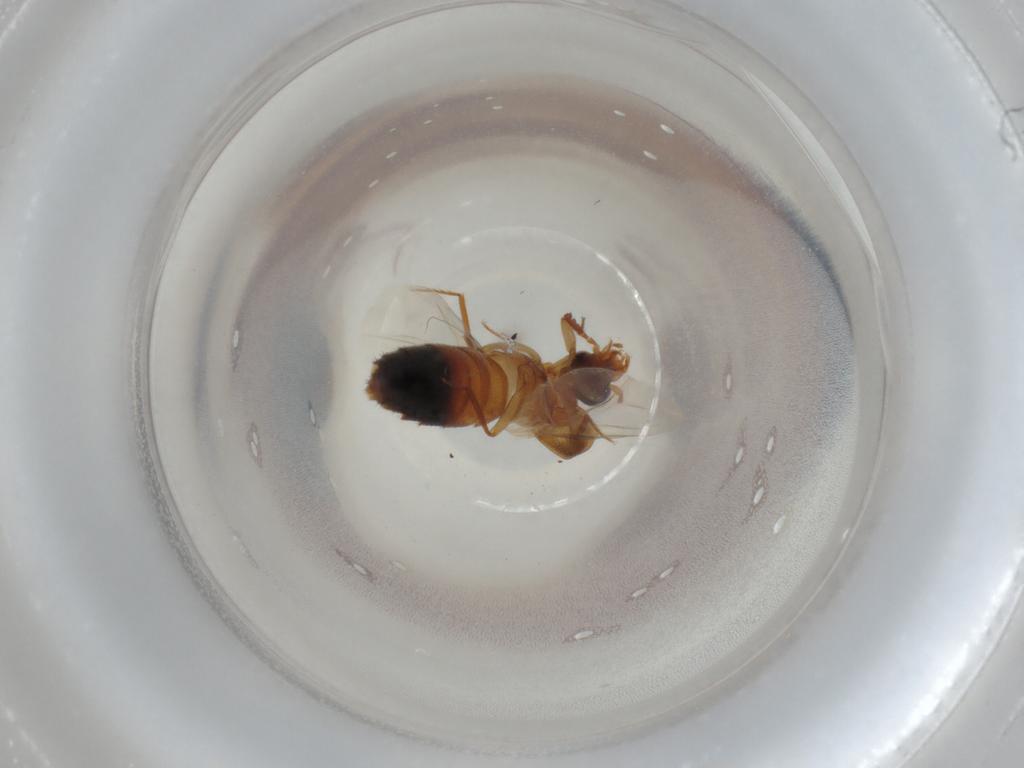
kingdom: Animalia
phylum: Arthropoda
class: Insecta
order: Coleoptera
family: Staphylinidae
